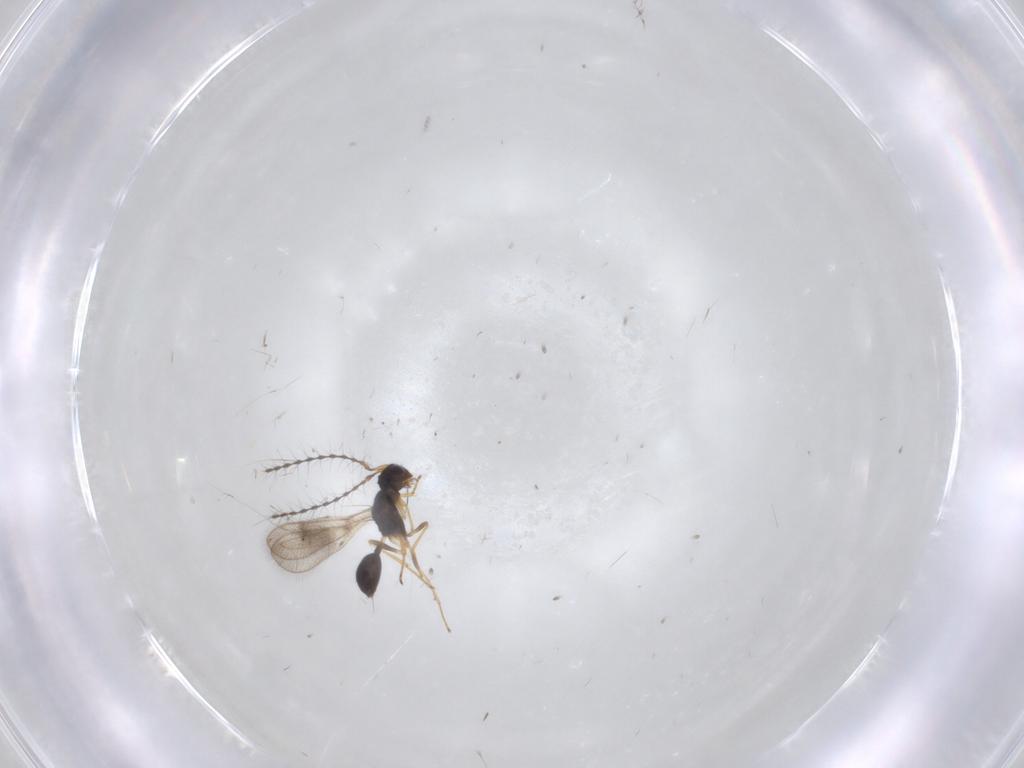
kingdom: Animalia
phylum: Arthropoda
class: Insecta
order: Hymenoptera
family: Diparidae
